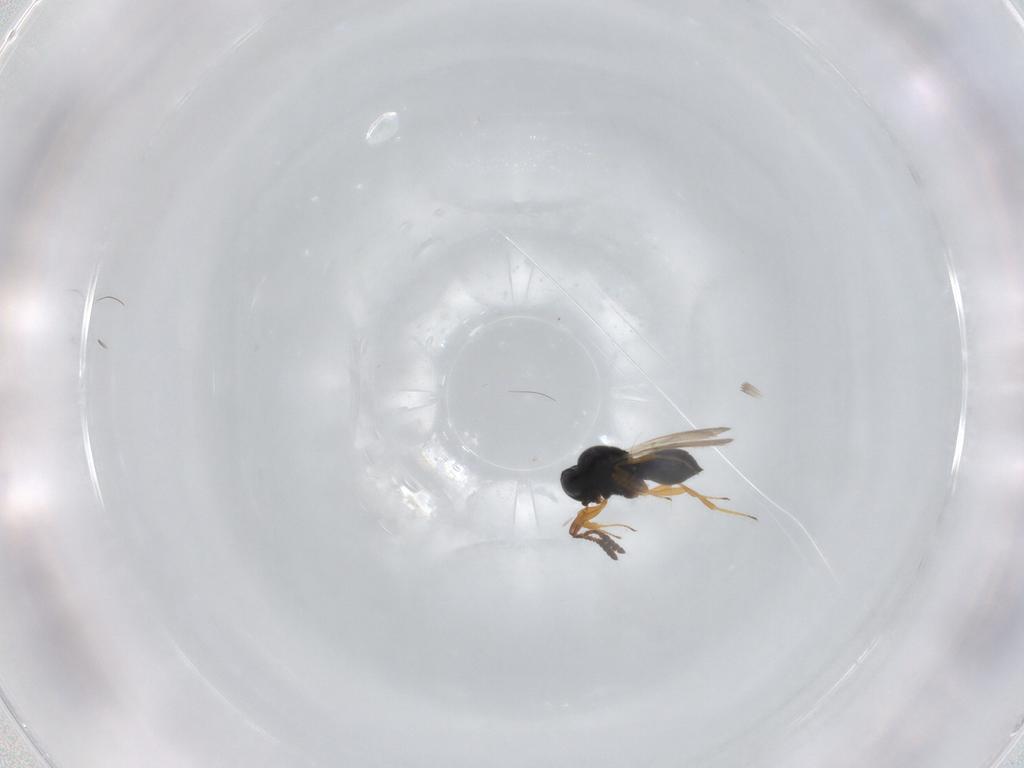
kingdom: Animalia
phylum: Arthropoda
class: Insecta
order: Hymenoptera
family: Scelionidae
